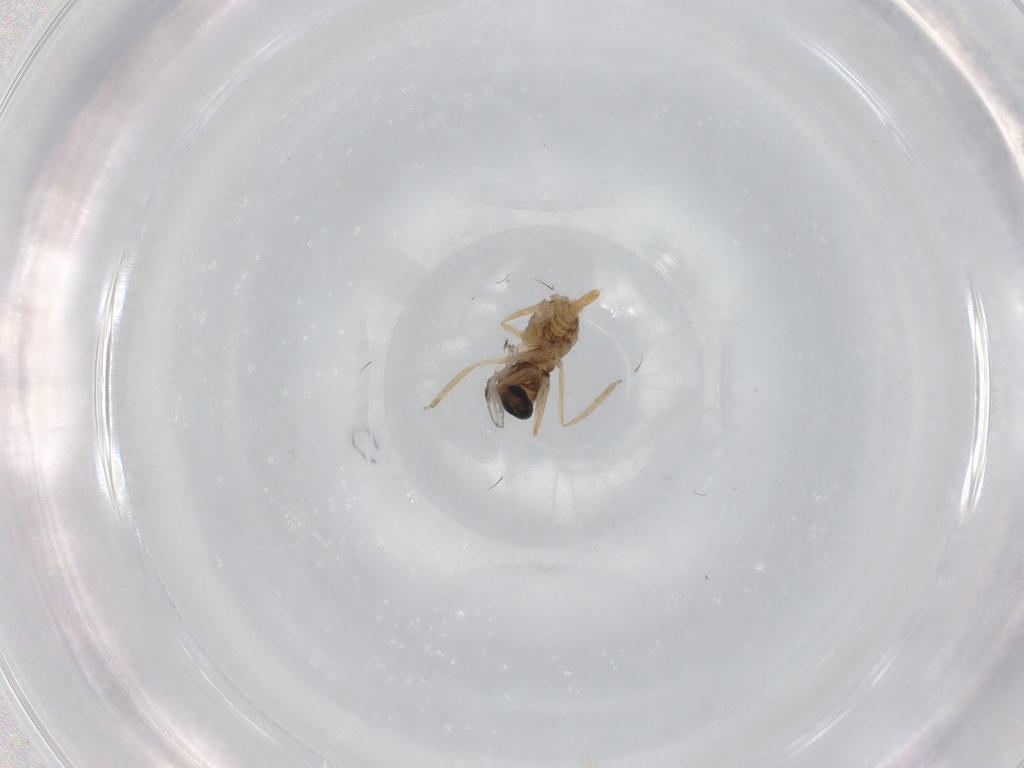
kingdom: Animalia
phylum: Arthropoda
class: Insecta
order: Diptera
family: Cecidomyiidae
